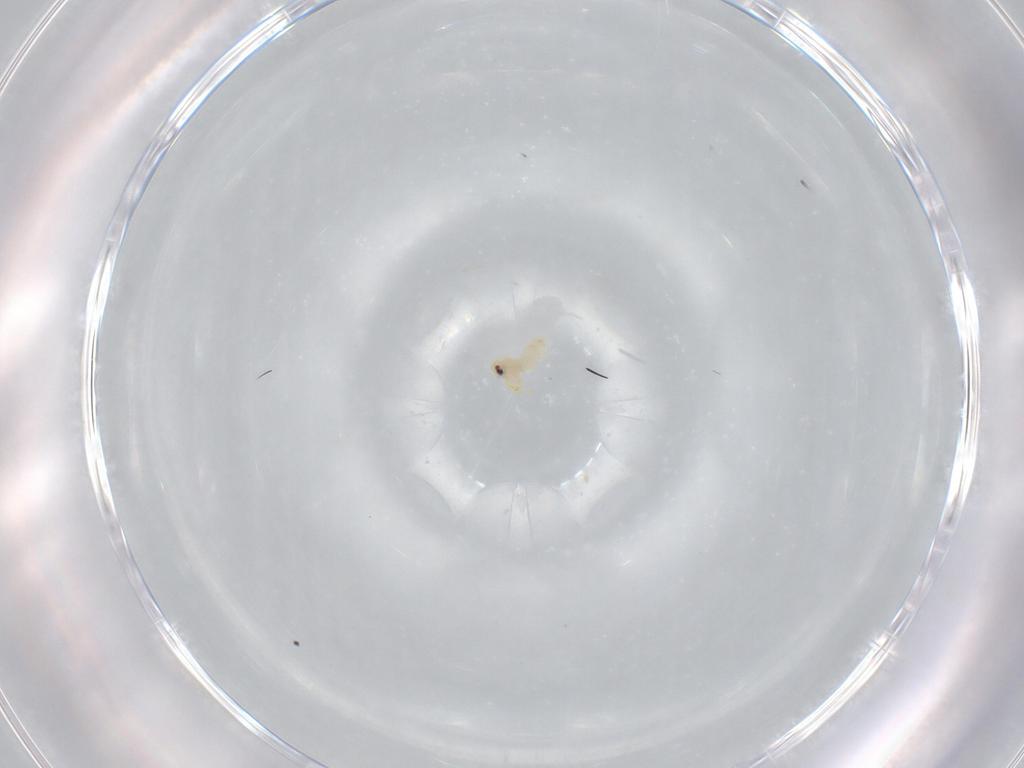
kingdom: Animalia
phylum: Arthropoda
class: Insecta
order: Hemiptera
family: Aleyrodidae
